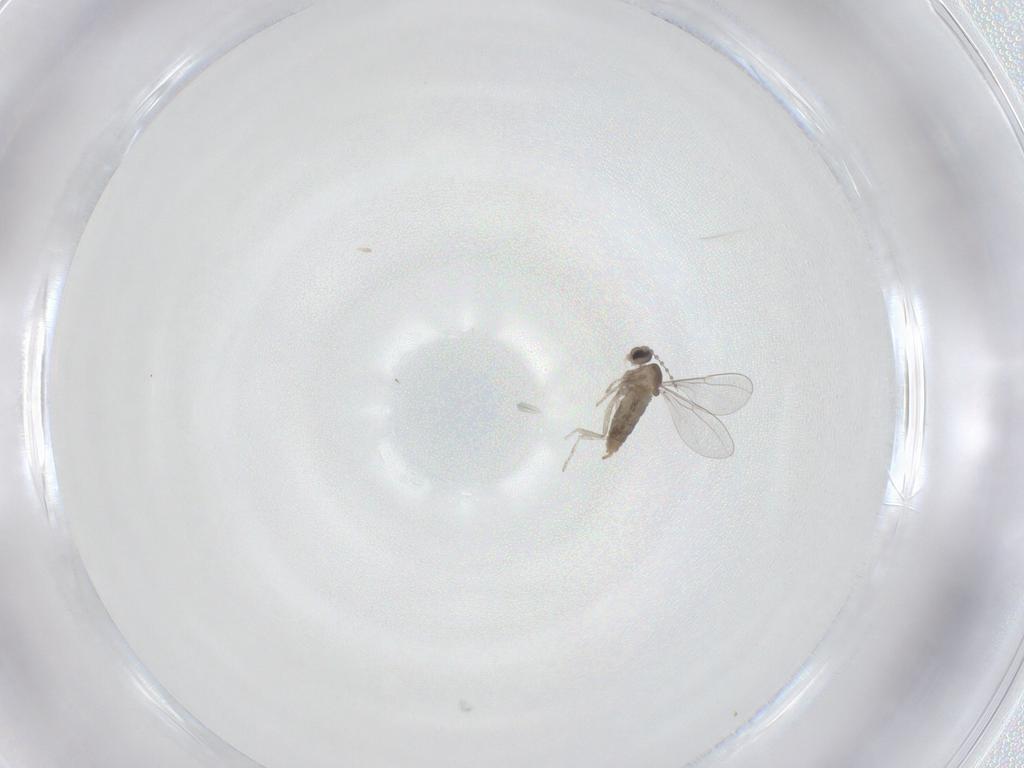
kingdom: Animalia
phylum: Arthropoda
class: Insecta
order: Diptera
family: Cecidomyiidae
